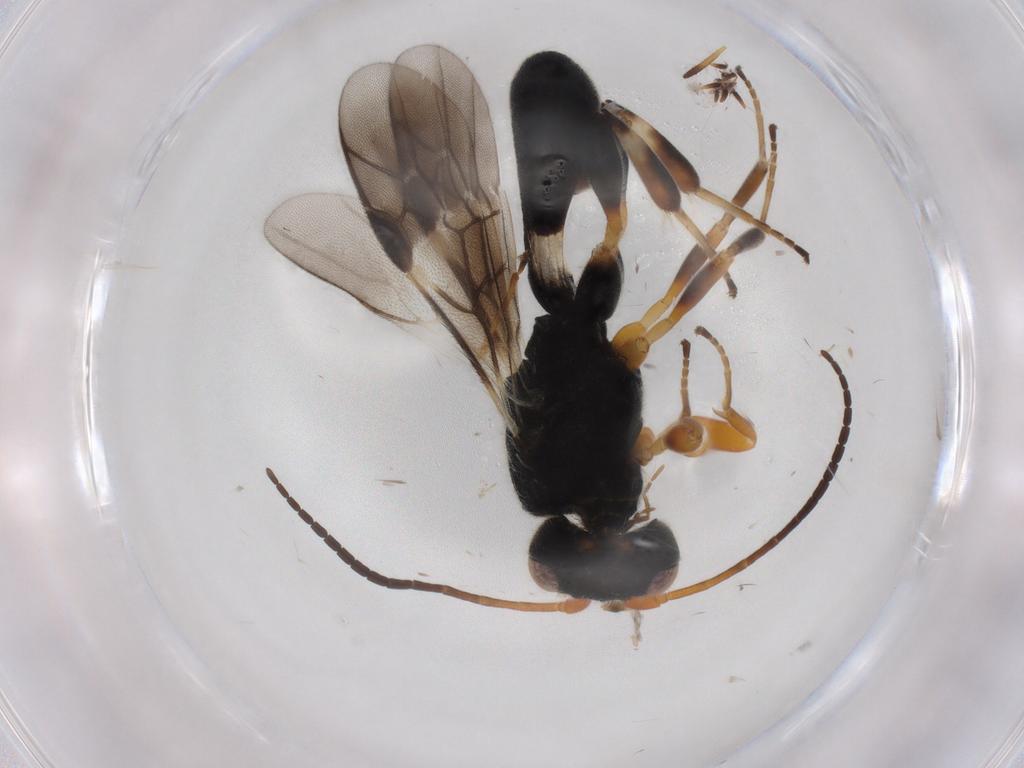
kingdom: Animalia
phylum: Arthropoda
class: Insecta
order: Hymenoptera
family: Braconidae
